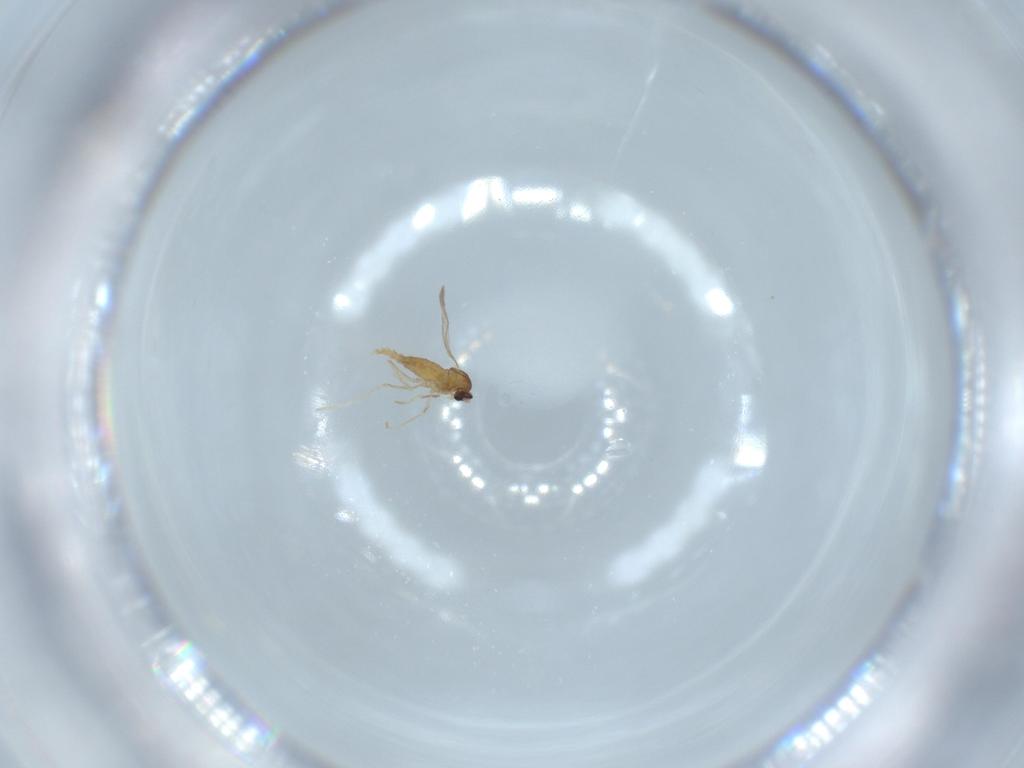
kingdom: Animalia
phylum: Arthropoda
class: Insecta
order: Diptera
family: Cecidomyiidae
